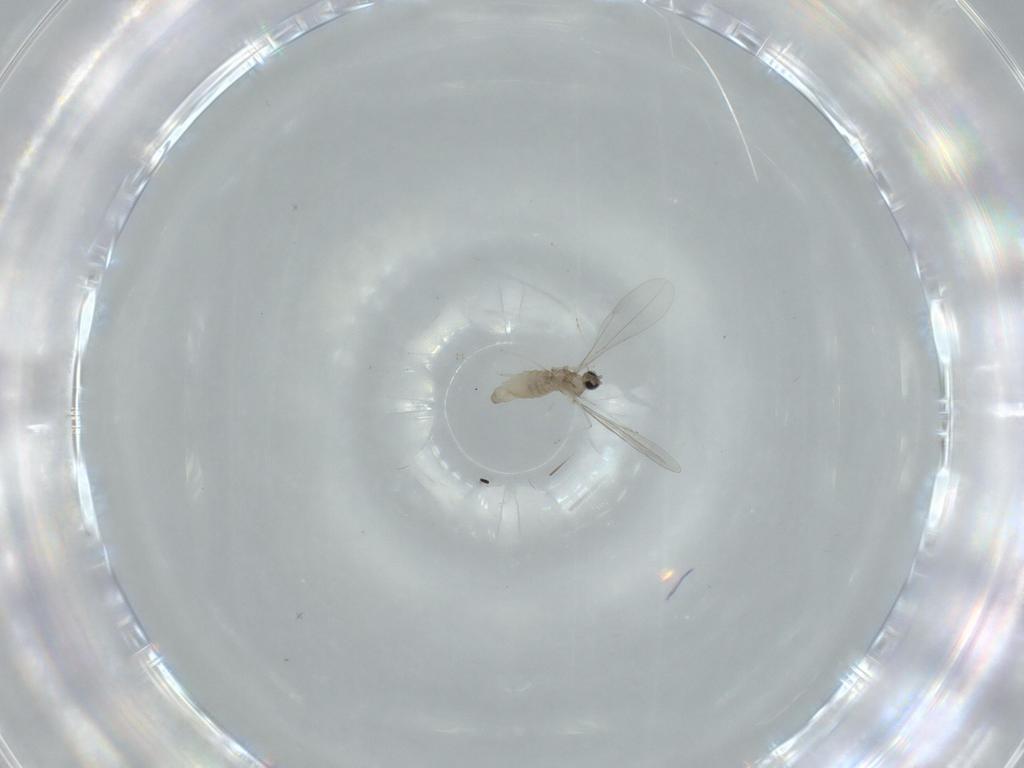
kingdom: Animalia
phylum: Arthropoda
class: Insecta
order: Diptera
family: Cecidomyiidae
